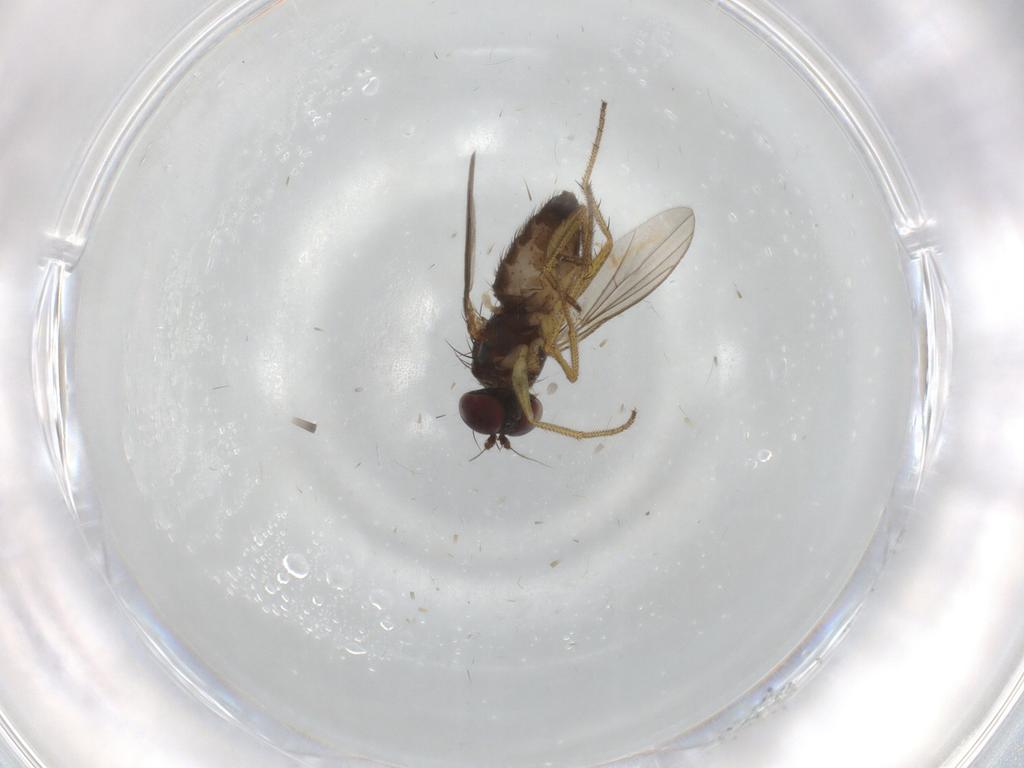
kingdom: Animalia
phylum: Arthropoda
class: Insecta
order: Diptera
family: Dolichopodidae
